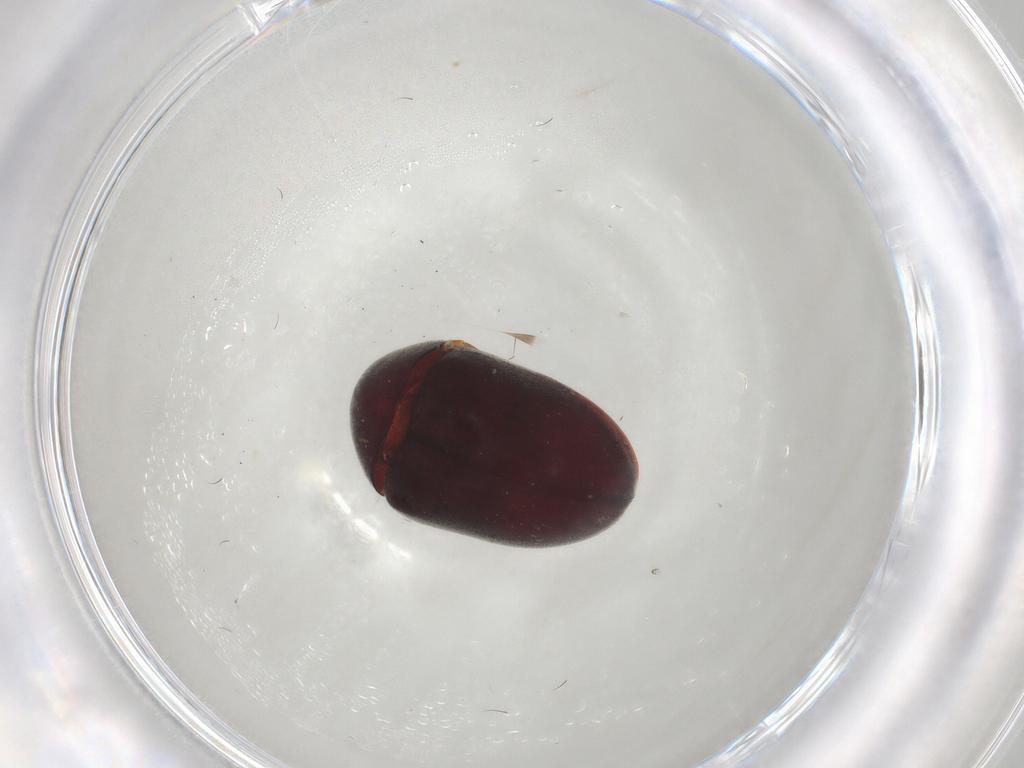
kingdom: Animalia
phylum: Arthropoda
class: Insecta
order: Coleoptera
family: Ptinidae
